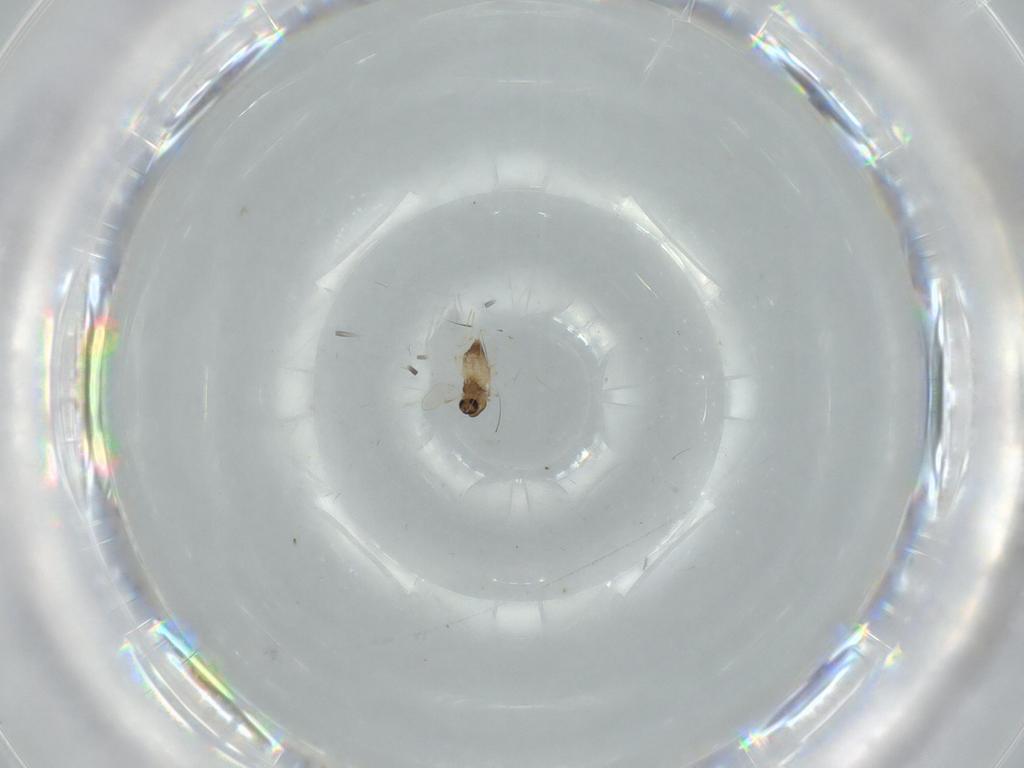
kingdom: Animalia
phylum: Arthropoda
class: Insecta
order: Diptera
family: Chironomidae
